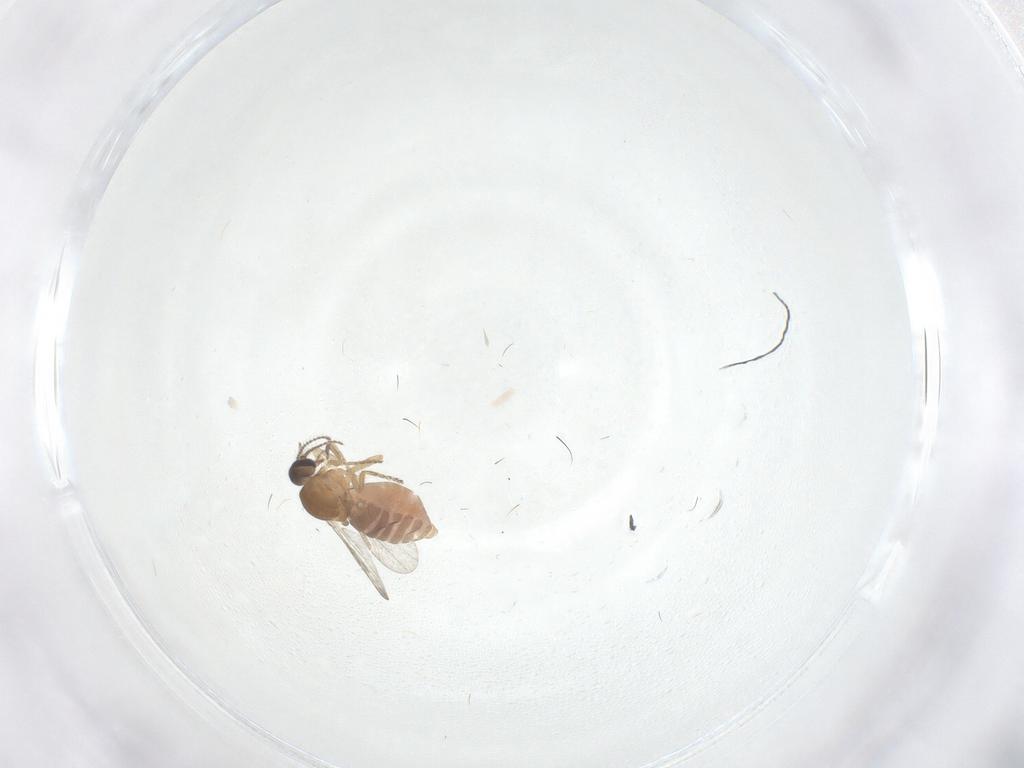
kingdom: Animalia
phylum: Arthropoda
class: Insecta
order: Diptera
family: Ceratopogonidae
